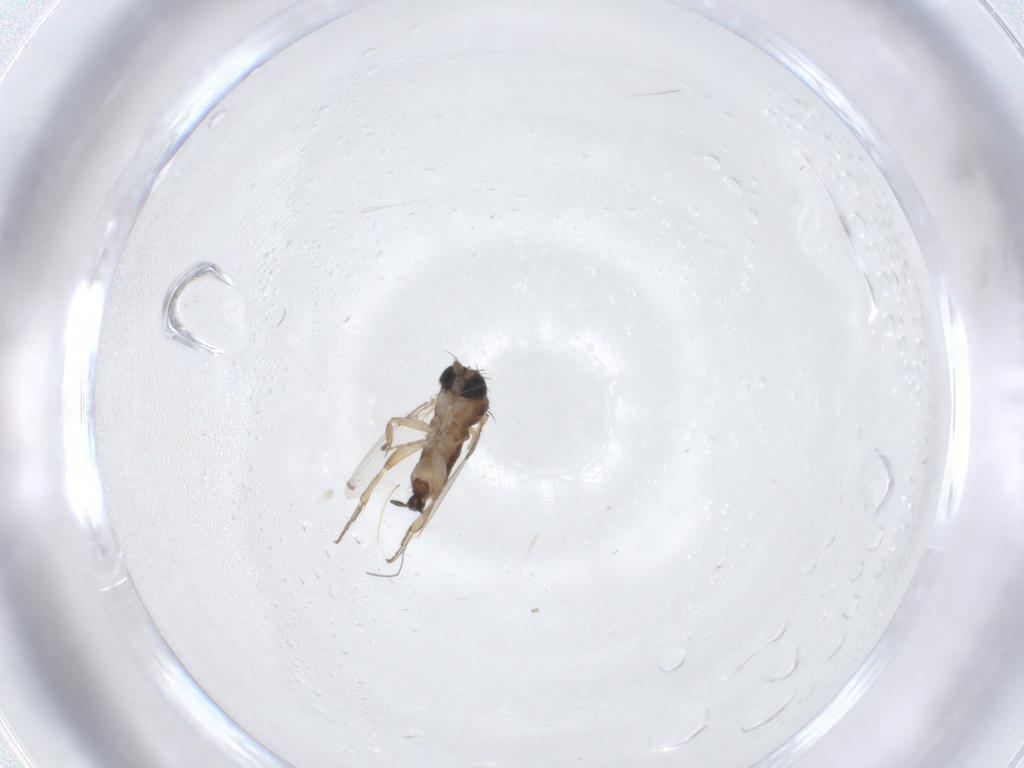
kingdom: Animalia
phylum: Arthropoda
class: Insecta
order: Diptera
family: Cecidomyiidae
